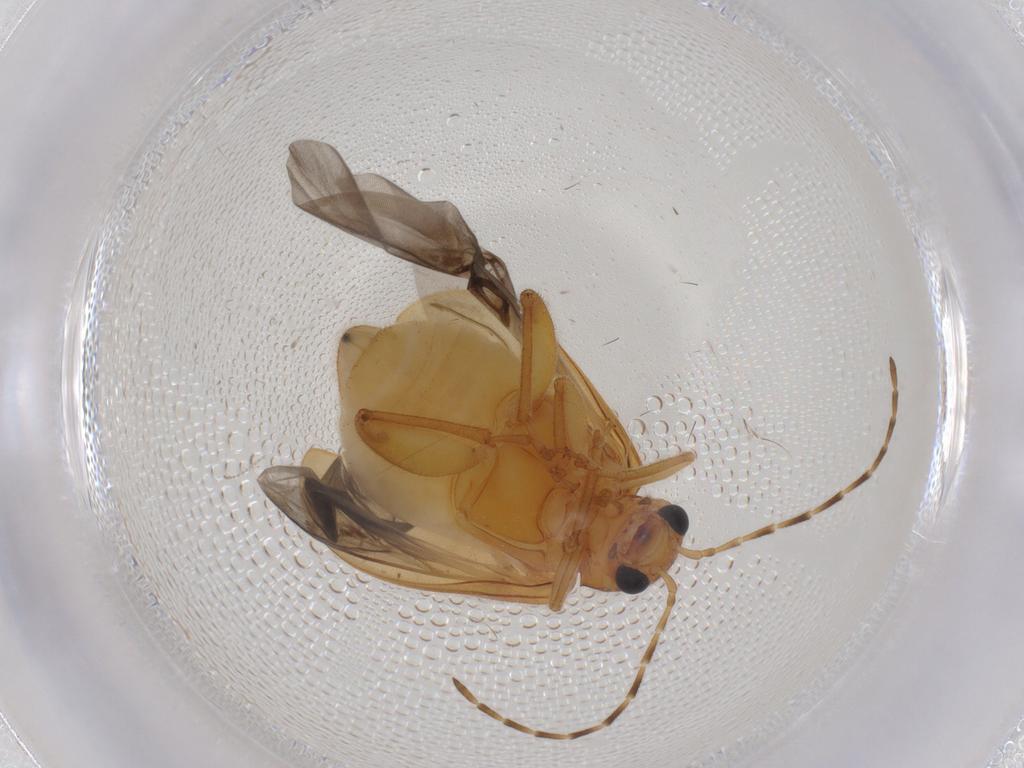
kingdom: Animalia
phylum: Arthropoda
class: Insecta
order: Coleoptera
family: Chrysomelidae
